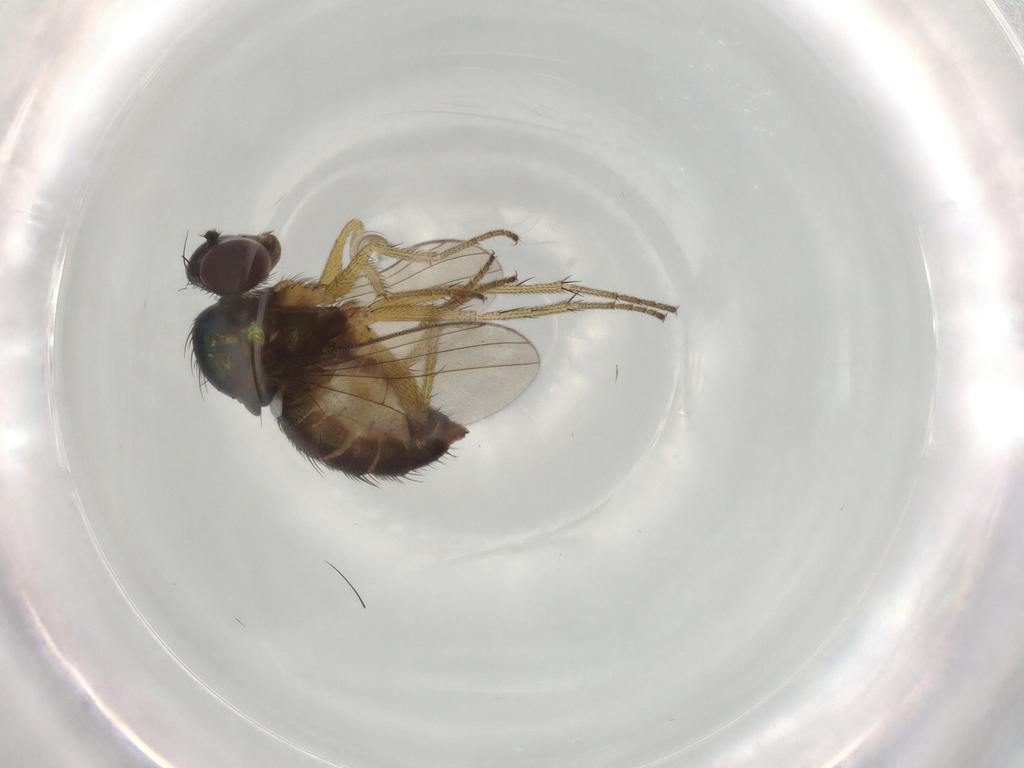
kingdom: Animalia
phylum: Arthropoda
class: Insecta
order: Diptera
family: Dolichopodidae
